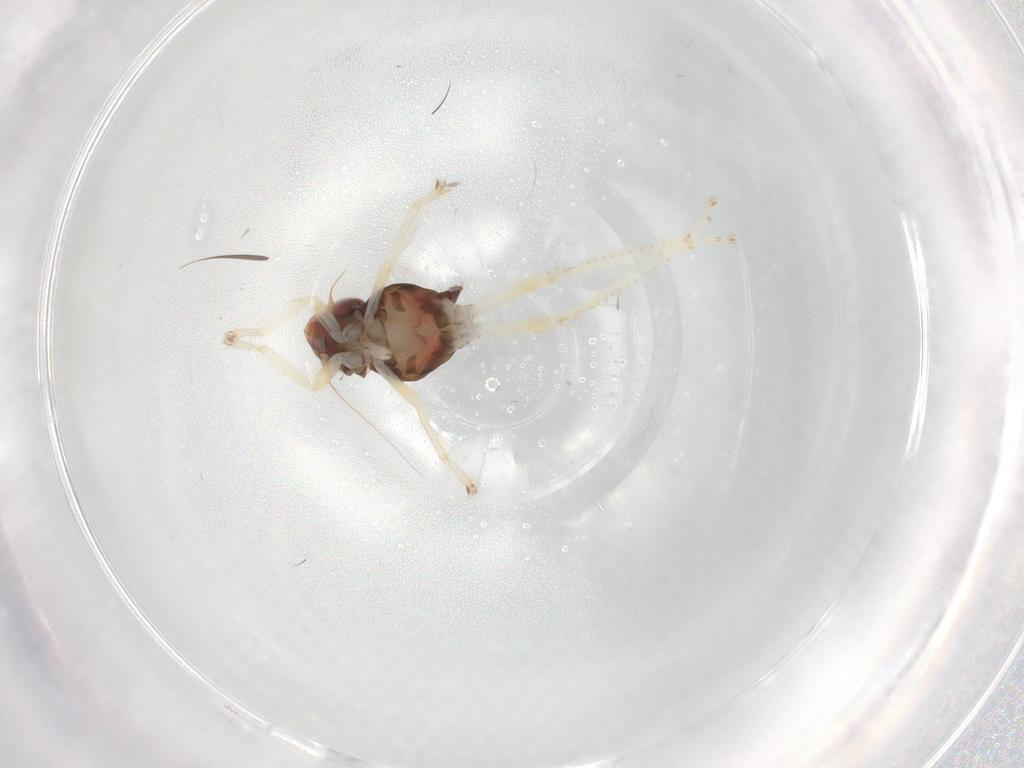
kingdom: Animalia
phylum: Arthropoda
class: Insecta
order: Hemiptera
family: Cicadellidae
